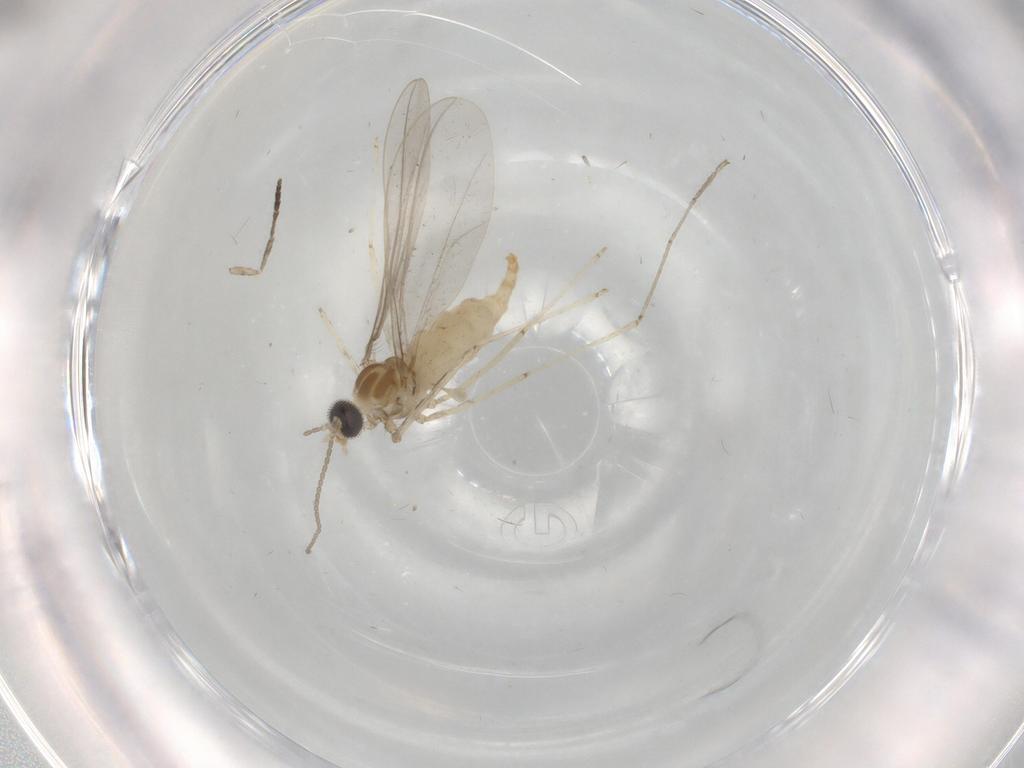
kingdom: Animalia
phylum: Arthropoda
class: Insecta
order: Diptera
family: Cecidomyiidae
